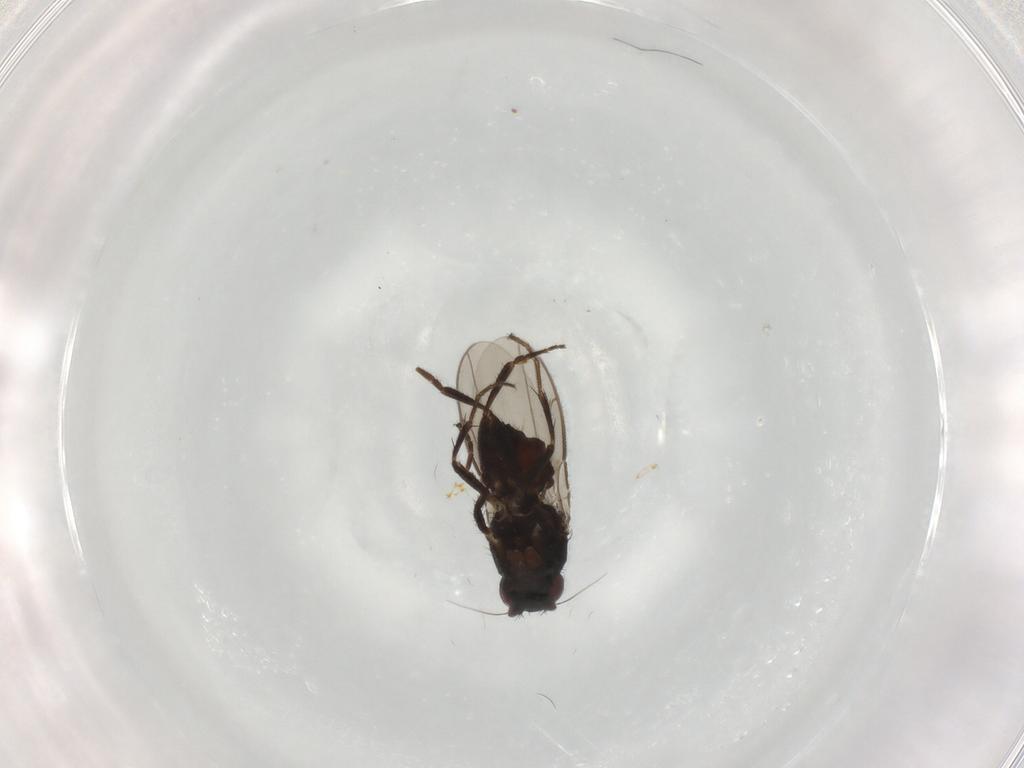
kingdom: Animalia
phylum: Arthropoda
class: Insecta
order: Diptera
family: Sphaeroceridae
